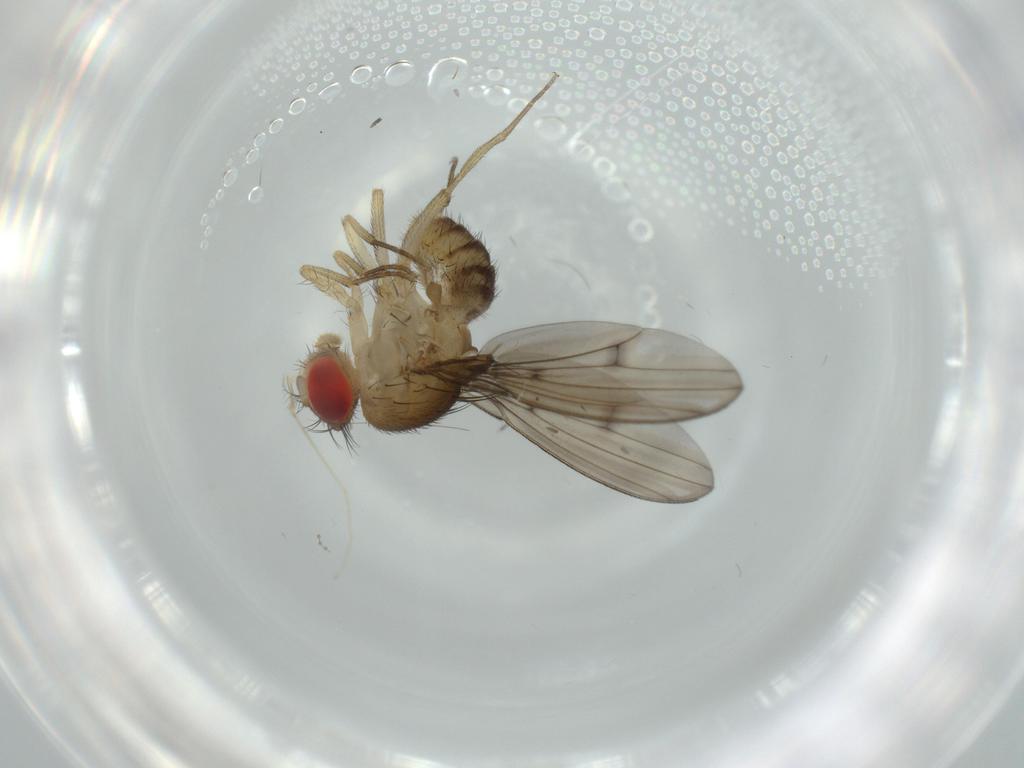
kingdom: Animalia
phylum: Arthropoda
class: Insecta
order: Diptera
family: Drosophilidae
